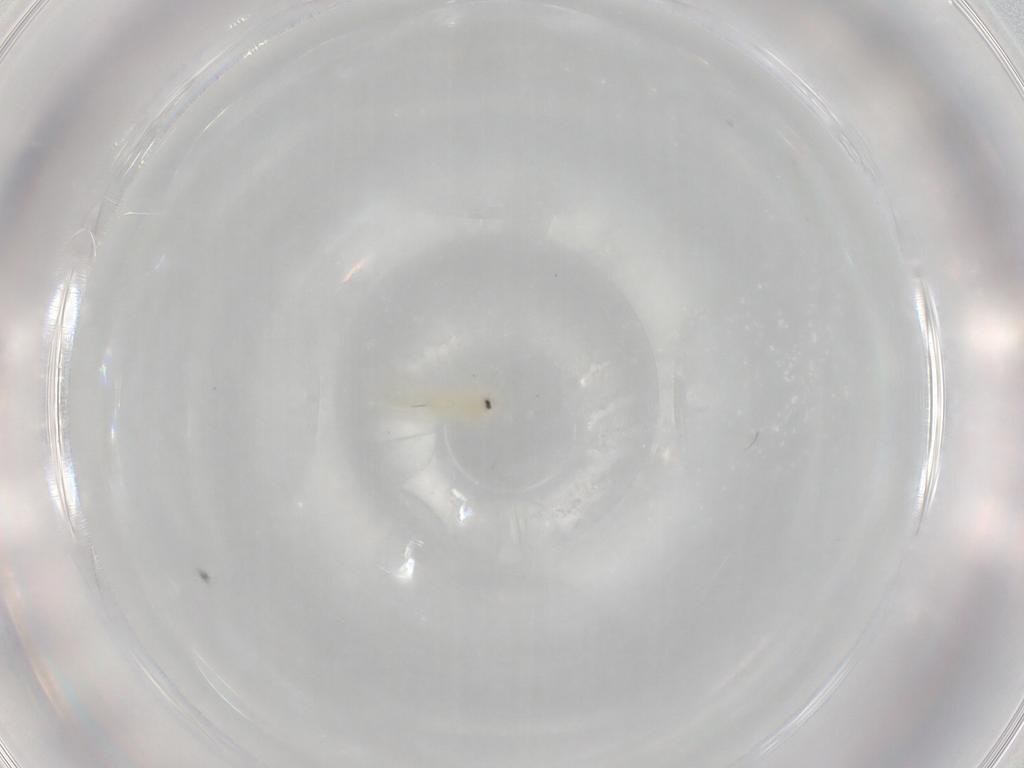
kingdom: Animalia
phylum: Arthropoda
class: Insecta
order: Hemiptera
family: Aleyrodidae
